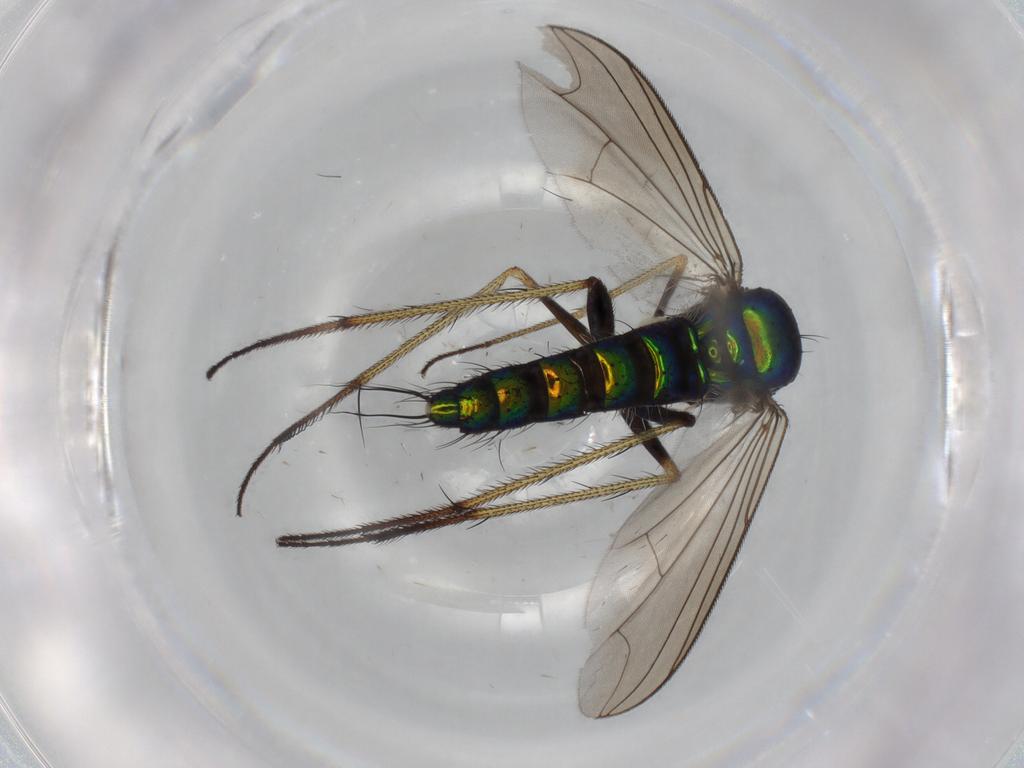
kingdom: Animalia
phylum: Arthropoda
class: Insecta
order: Diptera
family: Dolichopodidae
